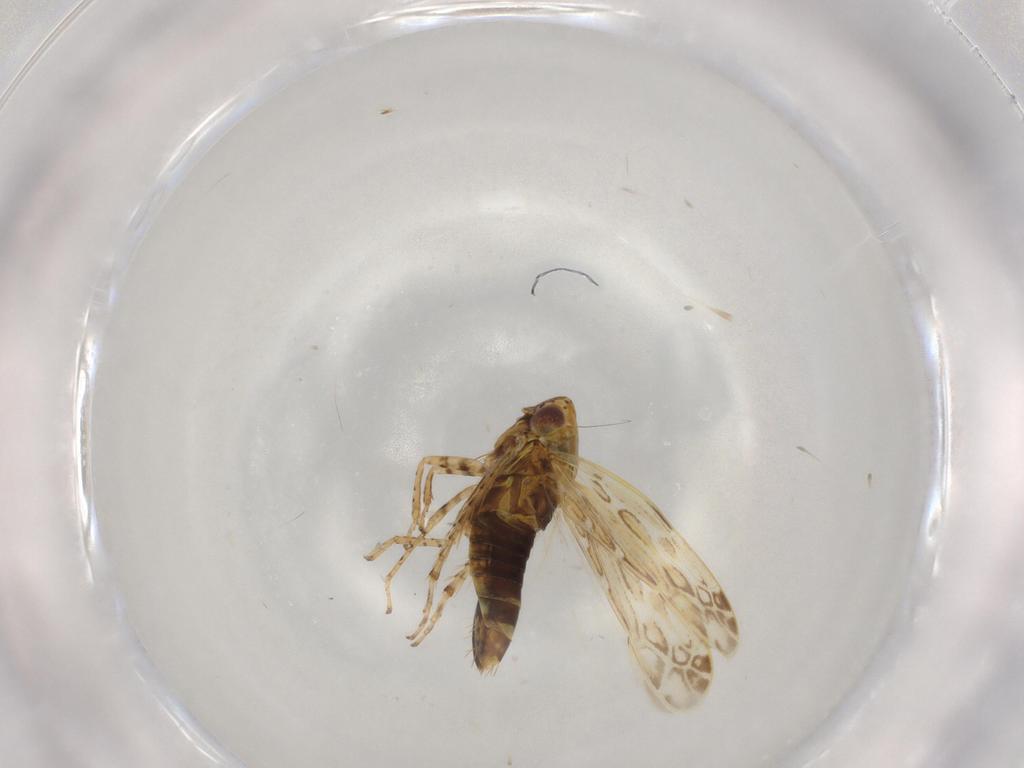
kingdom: Animalia
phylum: Arthropoda
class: Insecta
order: Hemiptera
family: Cicadellidae
